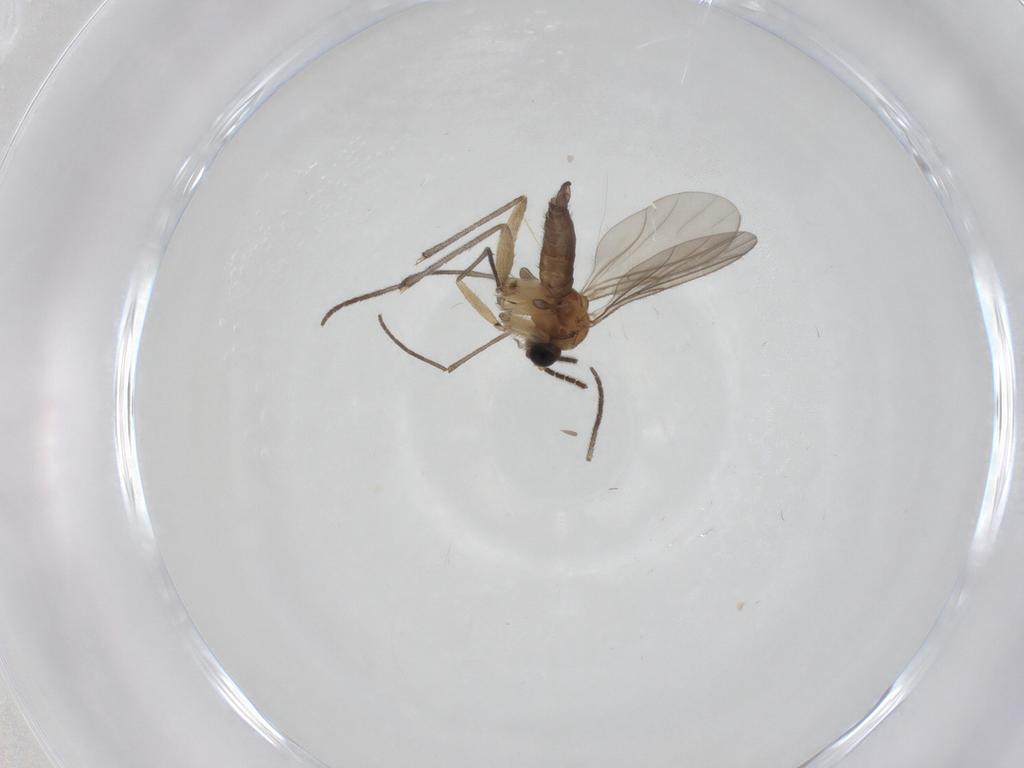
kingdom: Animalia
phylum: Arthropoda
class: Insecta
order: Diptera
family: Sciaridae
